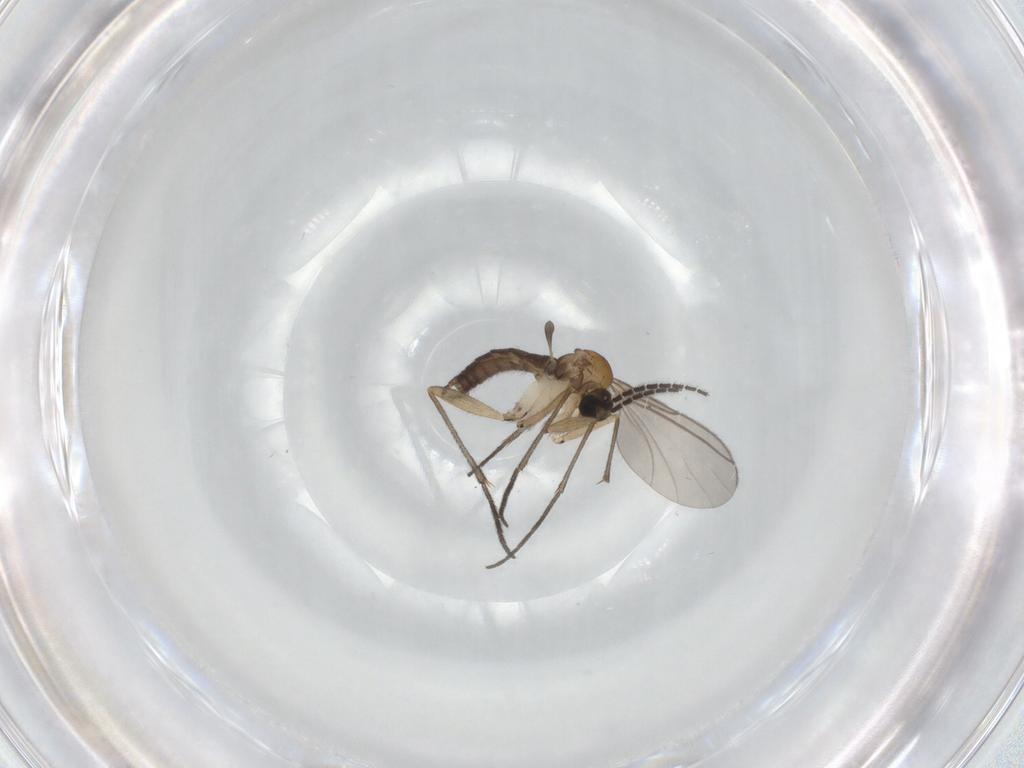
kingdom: Animalia
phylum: Arthropoda
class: Insecta
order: Diptera
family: Sciaridae
